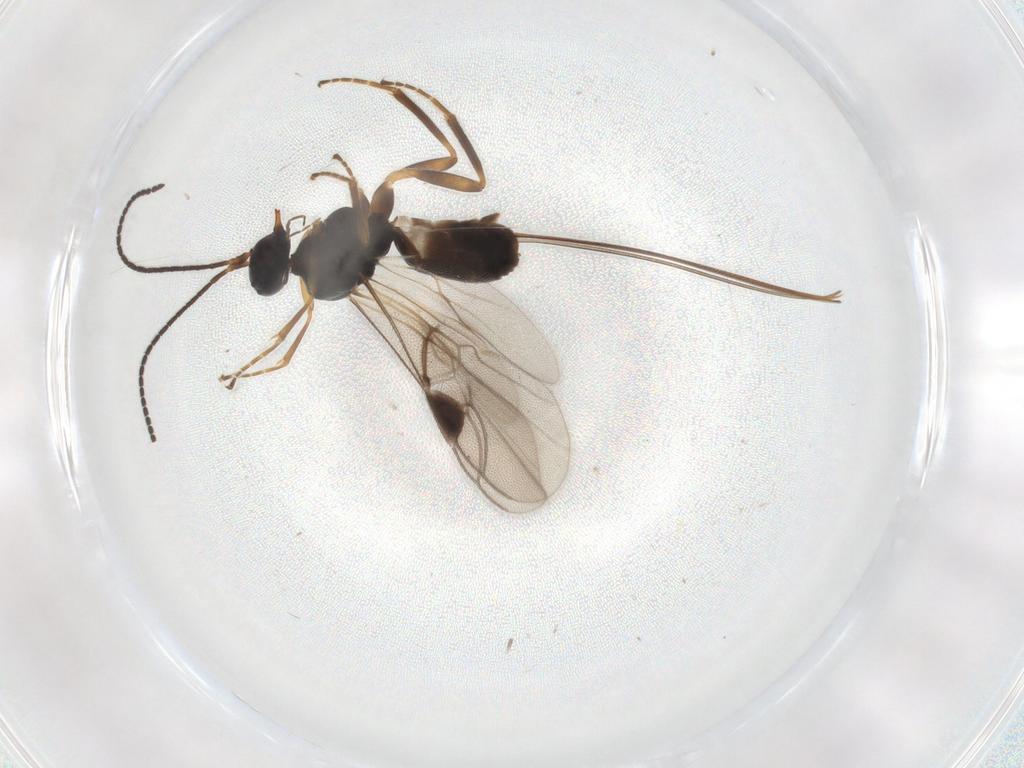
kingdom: Animalia
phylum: Arthropoda
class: Insecta
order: Hymenoptera
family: Braconidae
